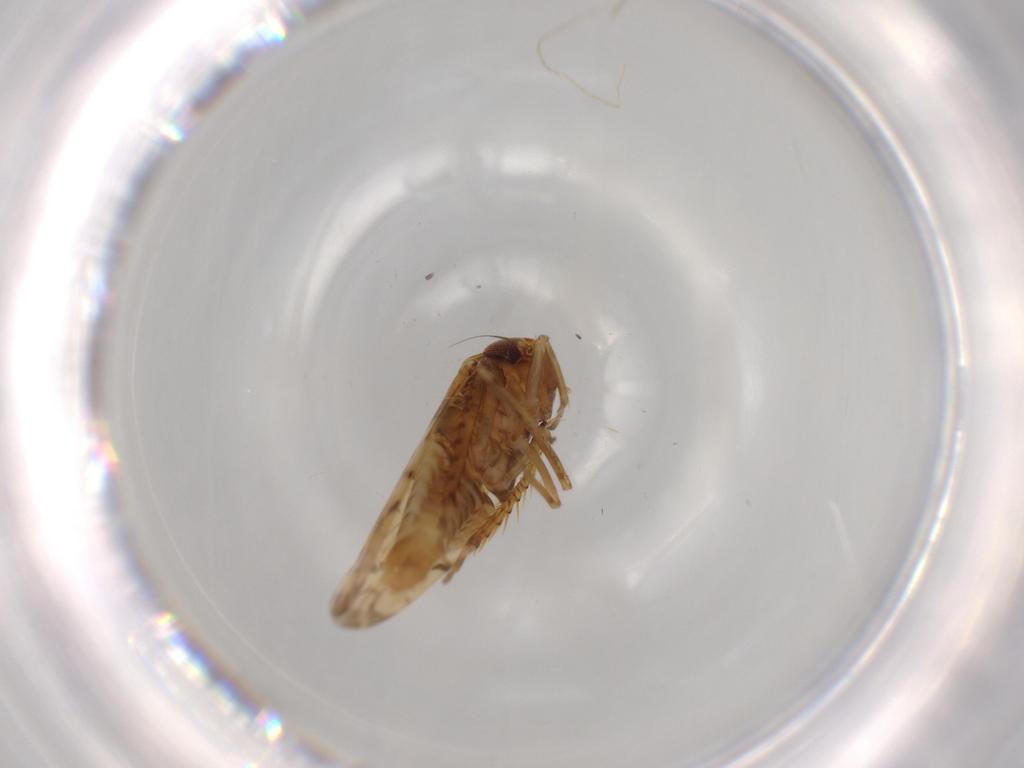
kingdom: Animalia
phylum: Arthropoda
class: Insecta
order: Hemiptera
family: Cicadellidae
